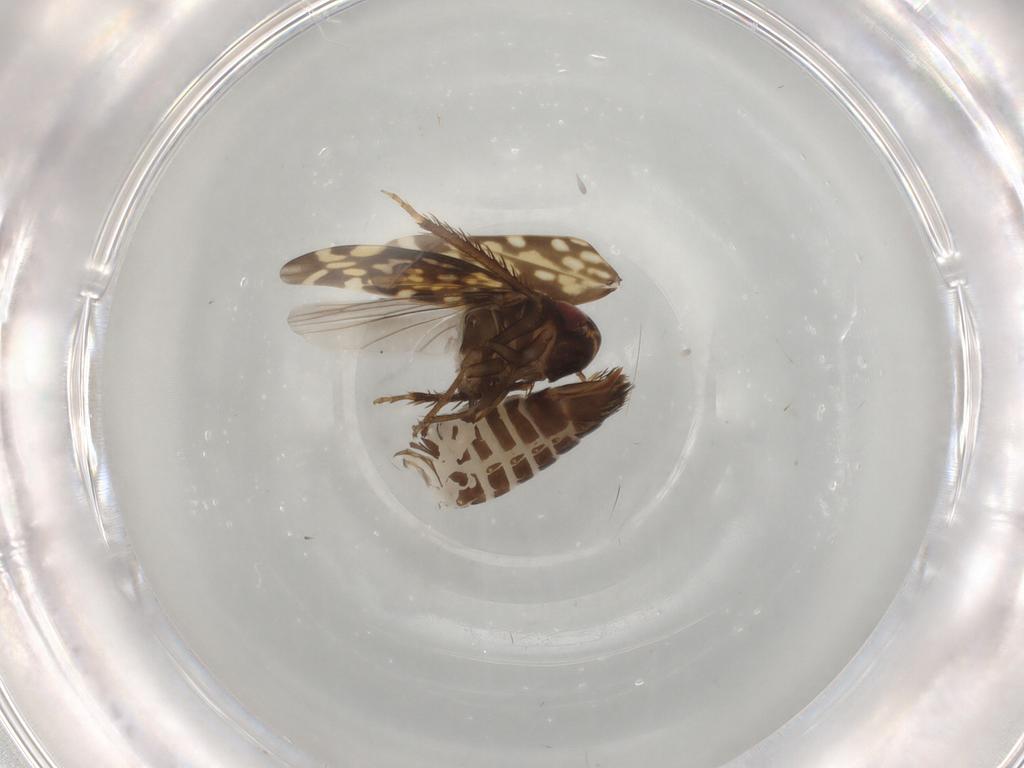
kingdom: Animalia
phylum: Arthropoda
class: Insecta
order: Hemiptera
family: Cicadellidae
